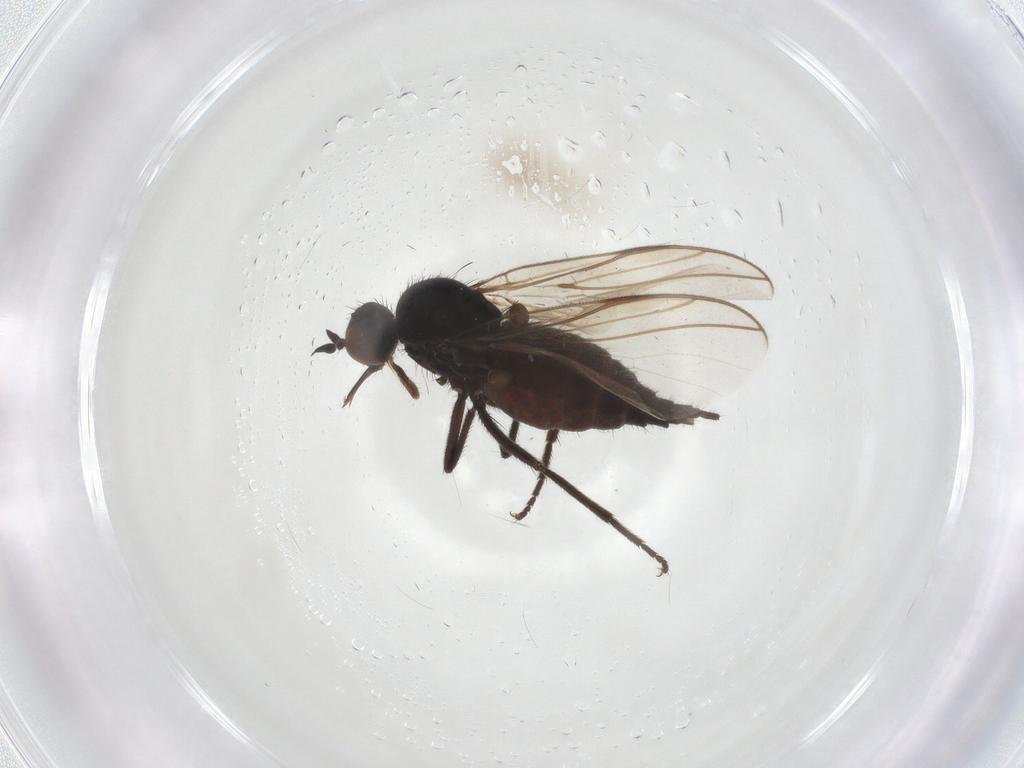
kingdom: Animalia
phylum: Arthropoda
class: Insecta
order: Diptera
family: Empididae
